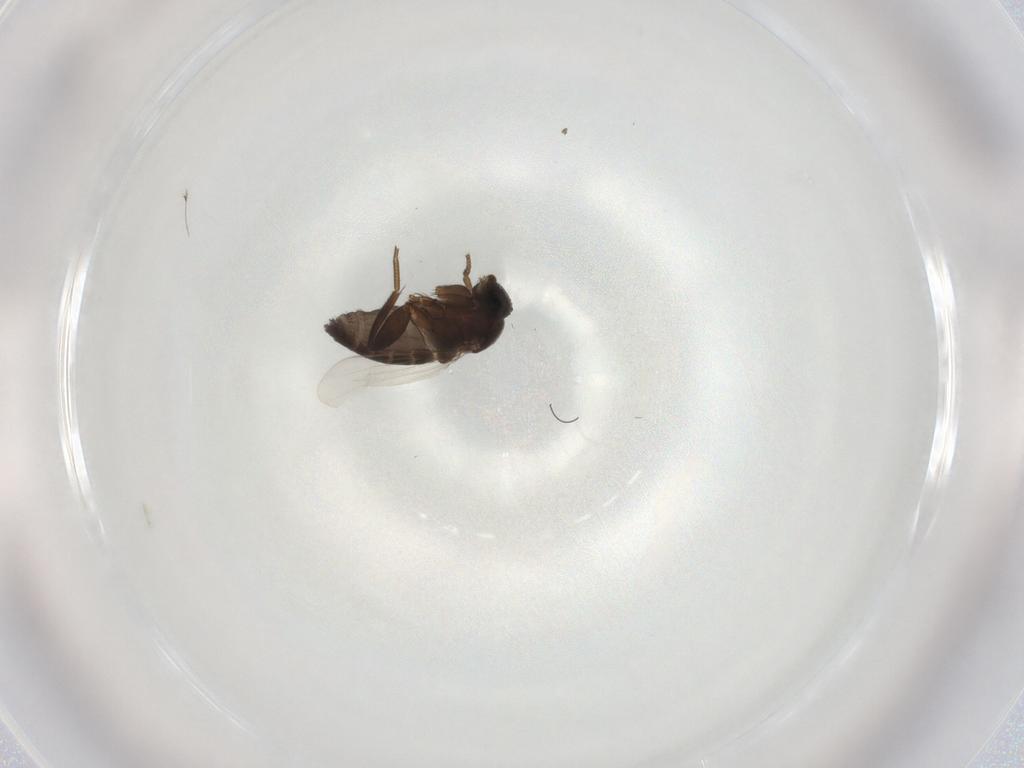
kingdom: Animalia
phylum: Arthropoda
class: Insecta
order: Diptera
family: Phoridae
